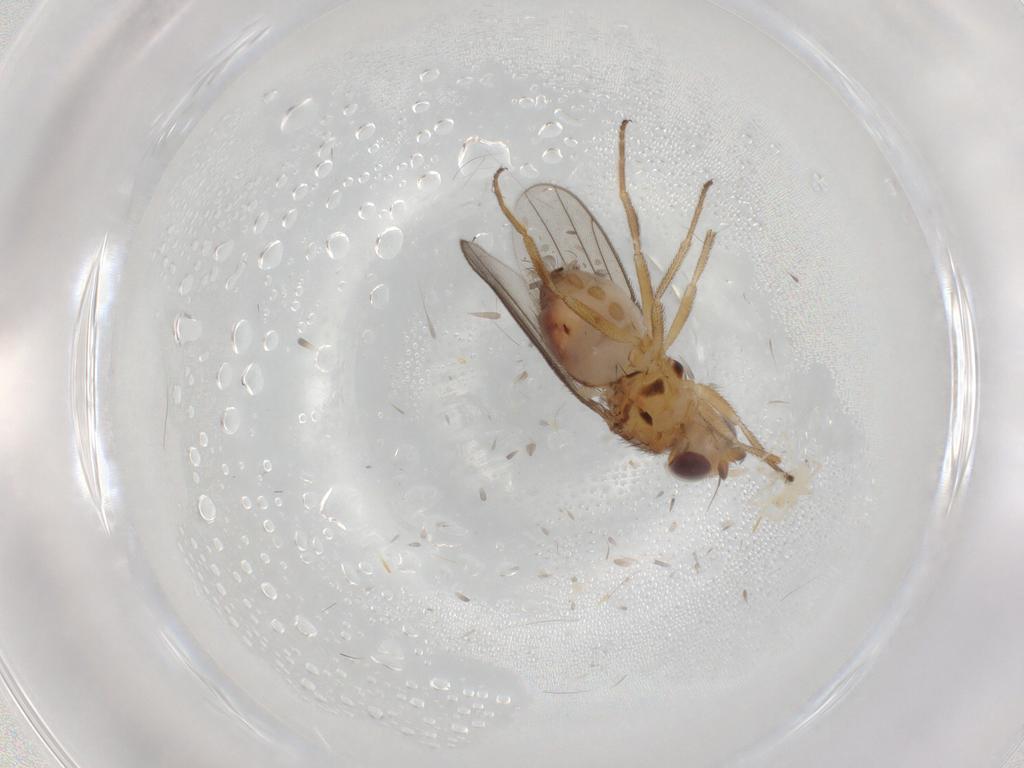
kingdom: Animalia
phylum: Arthropoda
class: Insecta
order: Diptera
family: Chloropidae
